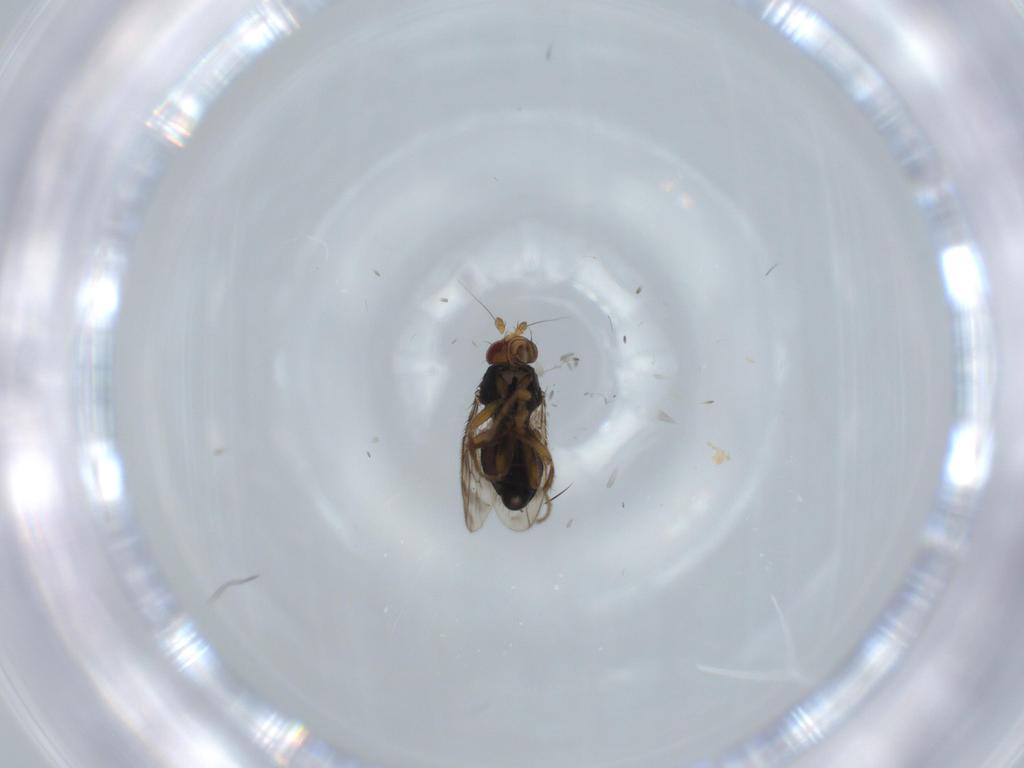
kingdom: Animalia
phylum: Arthropoda
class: Insecta
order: Diptera
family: Sphaeroceridae
